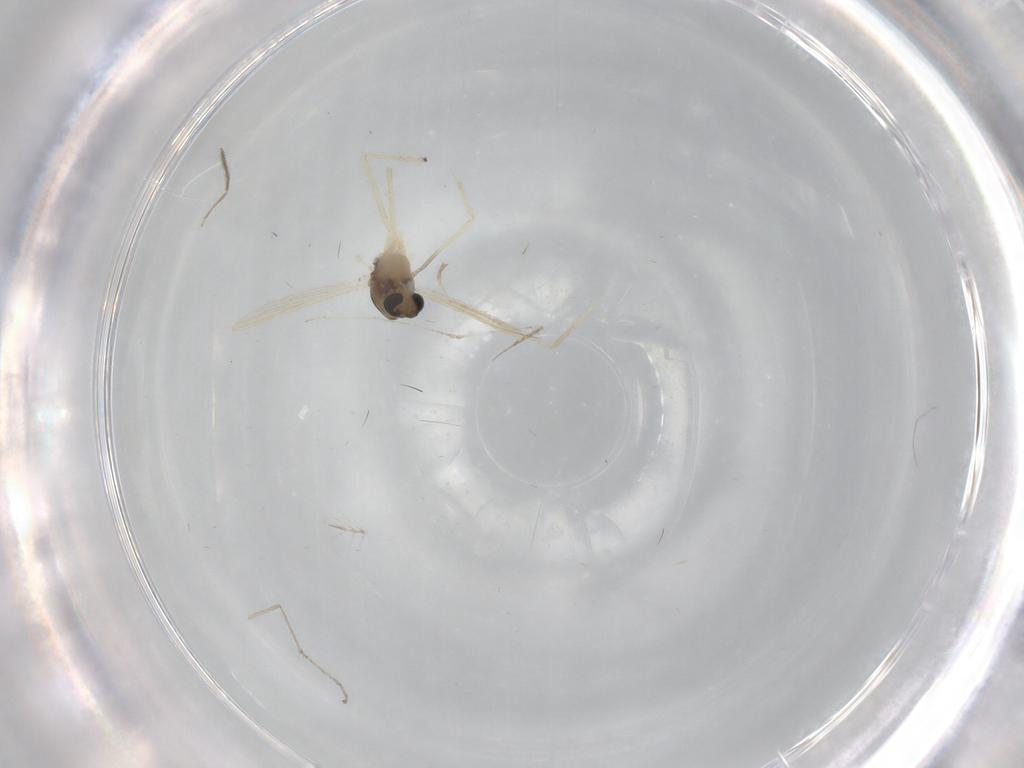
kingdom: Animalia
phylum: Arthropoda
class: Insecta
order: Diptera
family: Chironomidae
